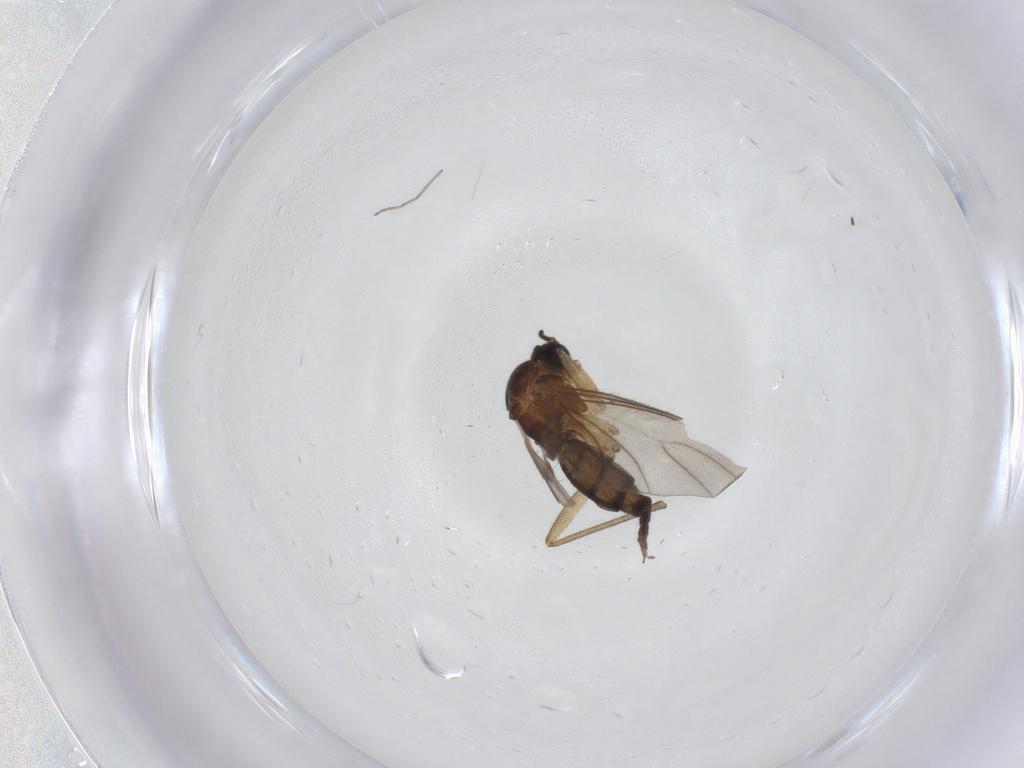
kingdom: Animalia
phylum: Arthropoda
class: Insecta
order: Diptera
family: Sciaridae
